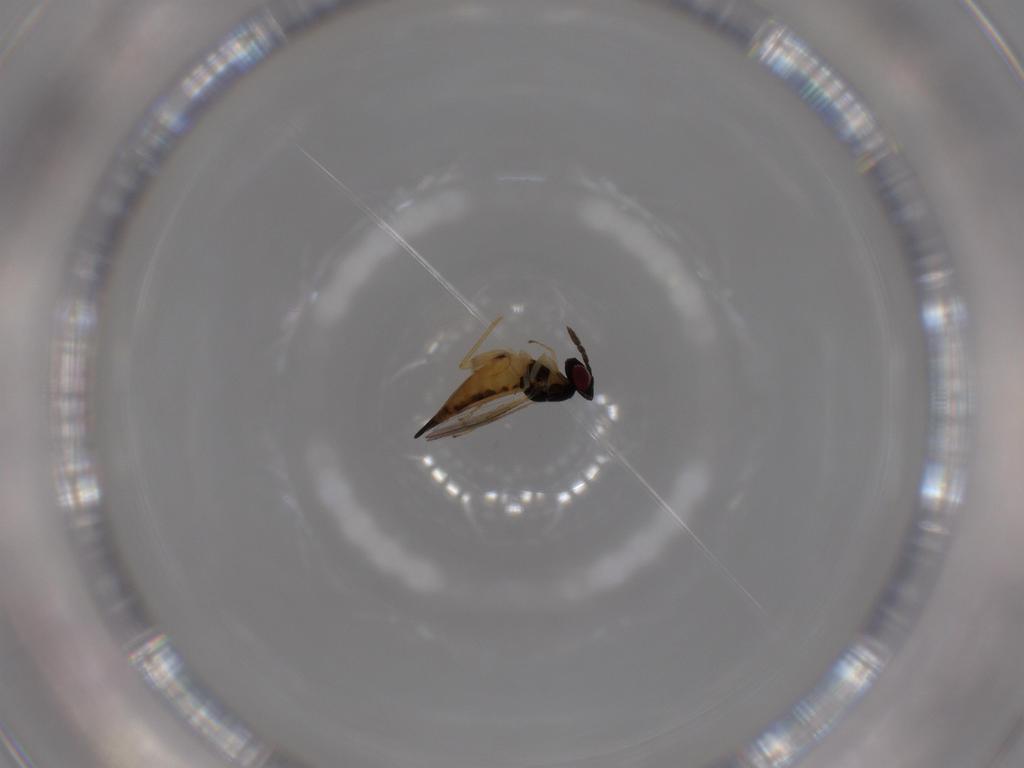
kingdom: Animalia
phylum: Arthropoda
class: Insecta
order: Hymenoptera
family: Eulophidae
